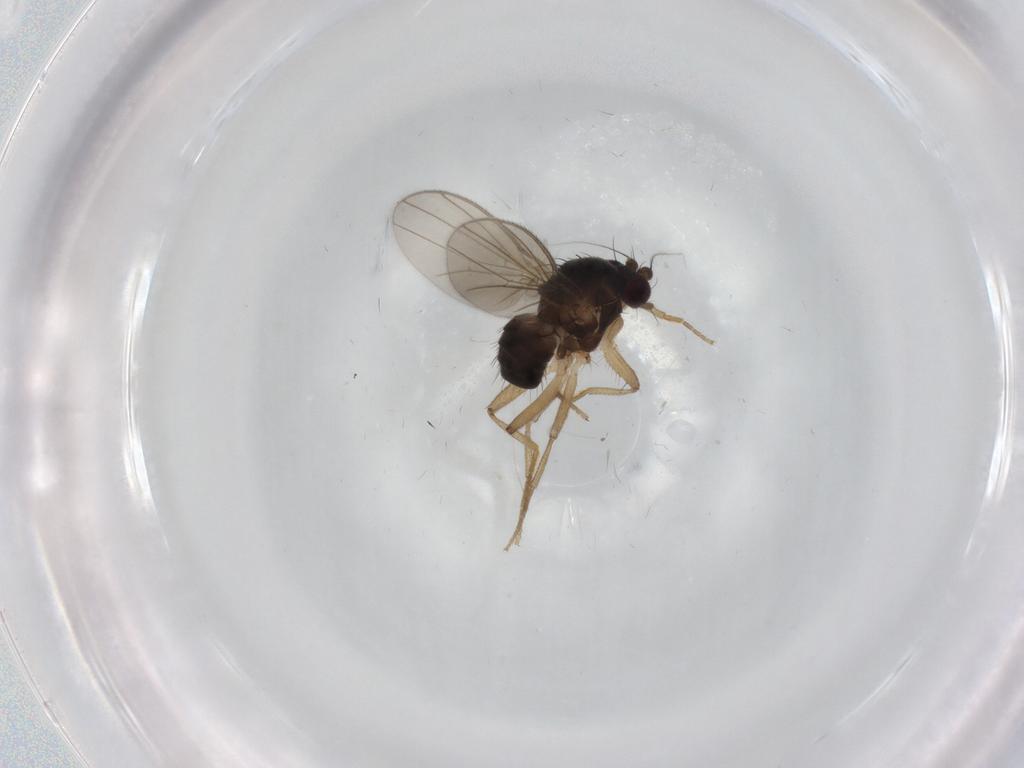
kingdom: Animalia
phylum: Arthropoda
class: Insecta
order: Diptera
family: Inbiomyiidae
